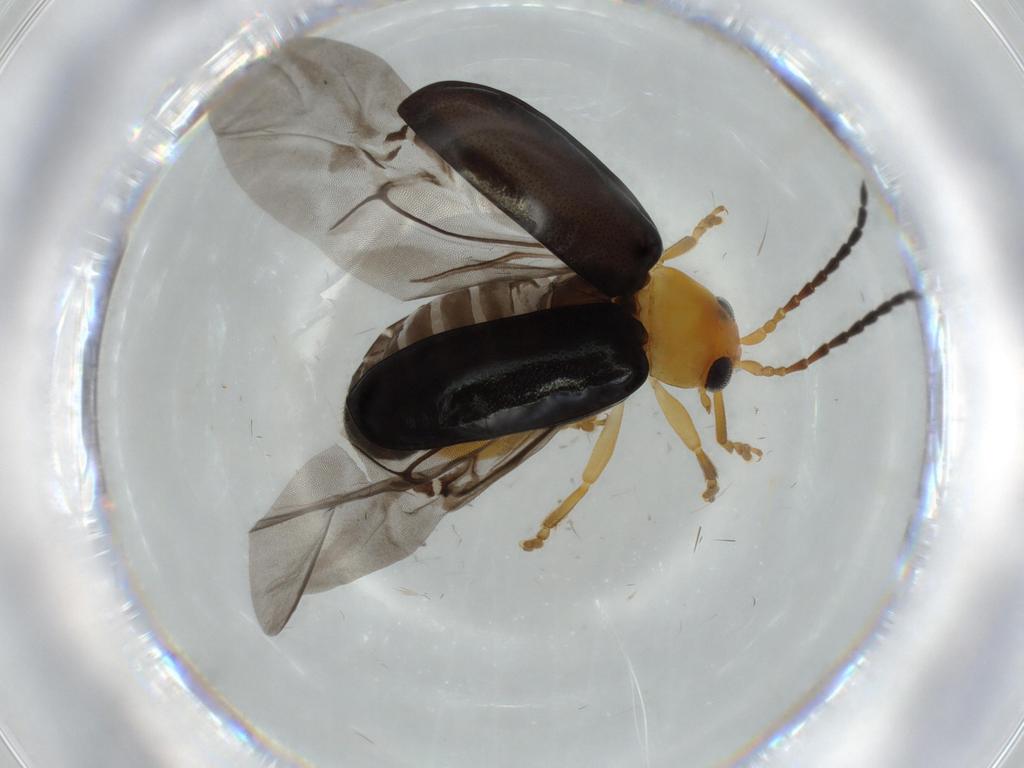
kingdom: Animalia
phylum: Arthropoda
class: Insecta
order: Coleoptera
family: Chrysomelidae
